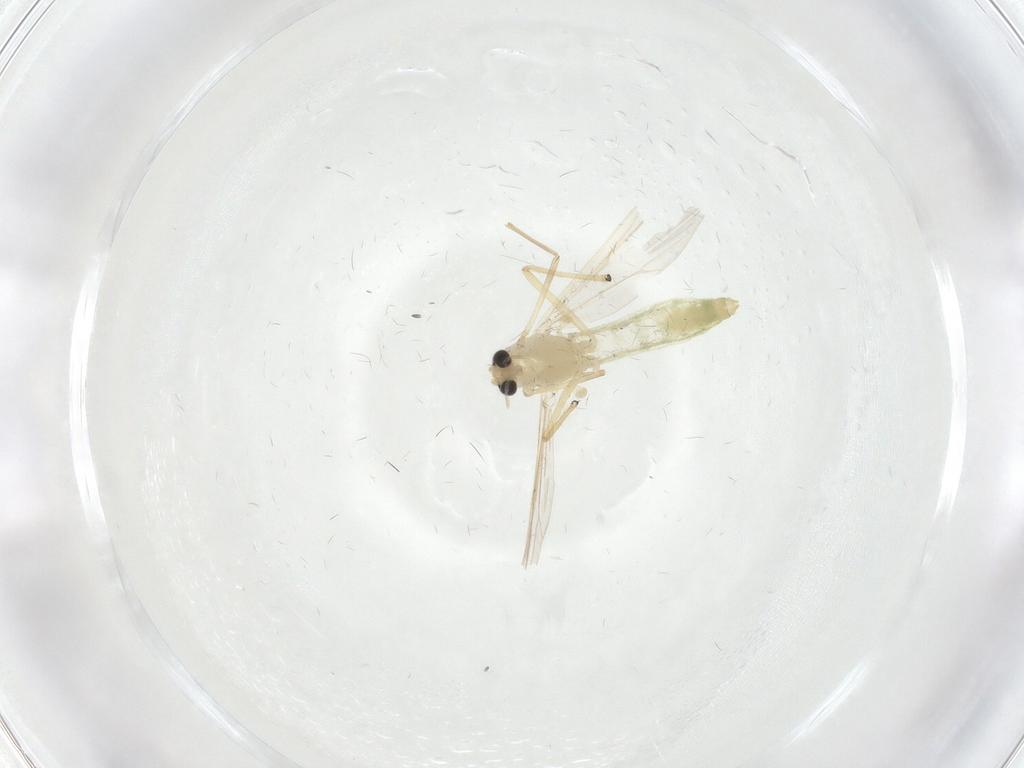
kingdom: Animalia
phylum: Arthropoda
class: Insecta
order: Diptera
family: Chironomidae
